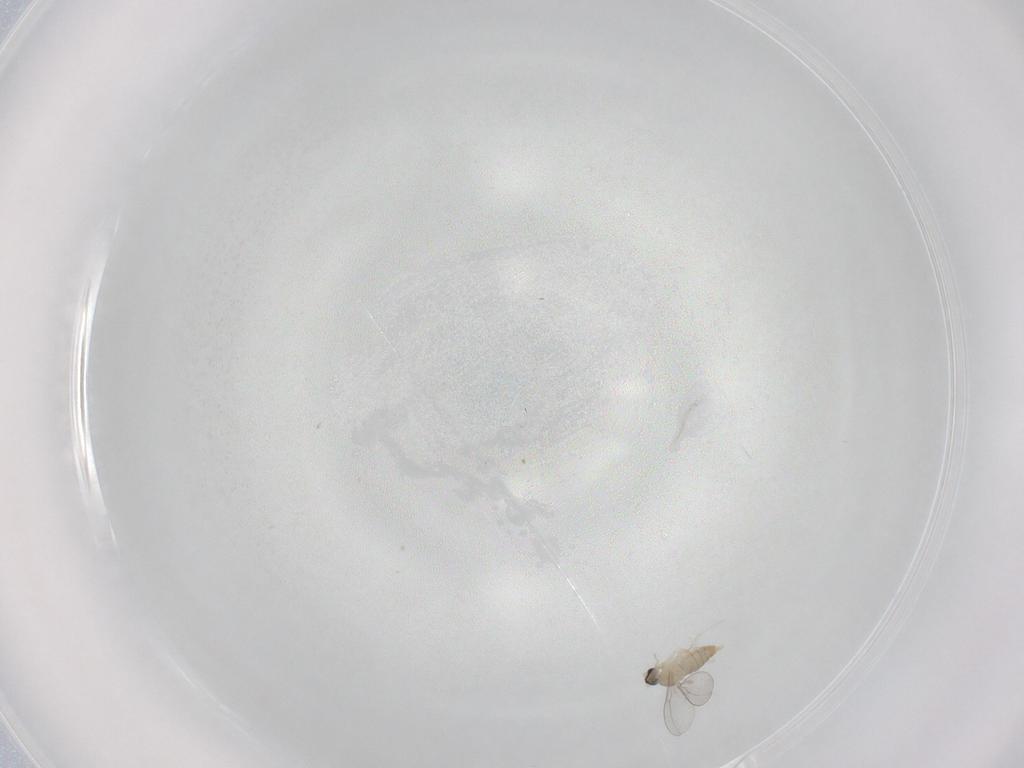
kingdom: Animalia
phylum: Arthropoda
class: Insecta
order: Diptera
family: Cecidomyiidae
